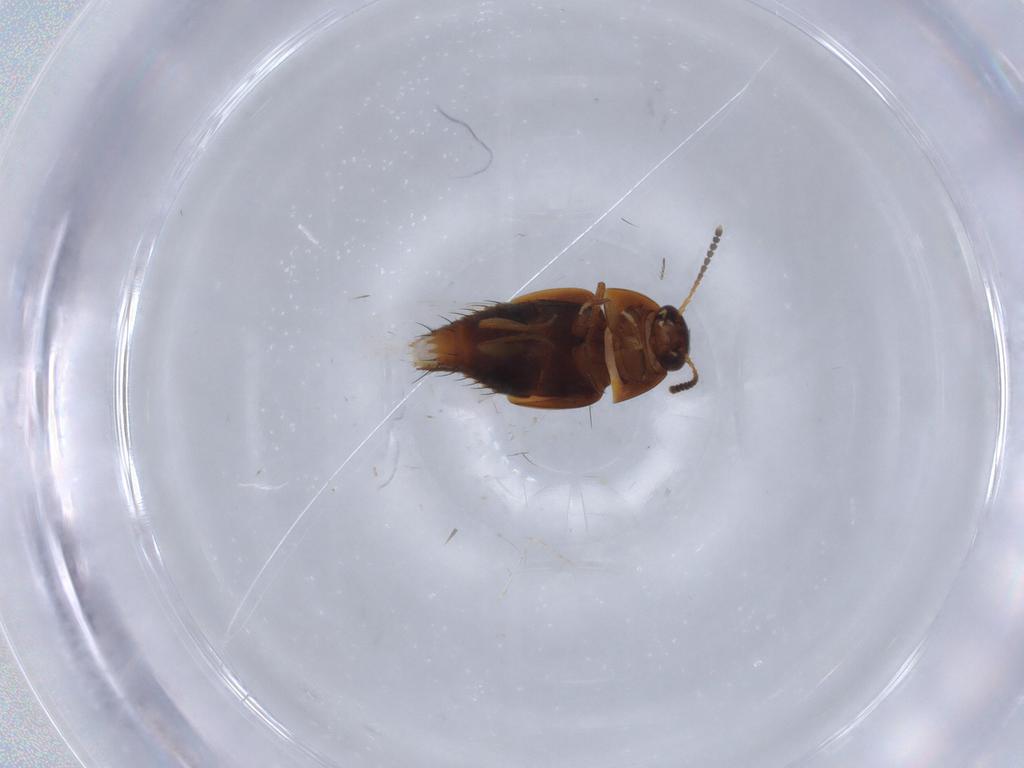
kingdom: Animalia
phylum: Arthropoda
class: Insecta
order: Coleoptera
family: Staphylinidae
